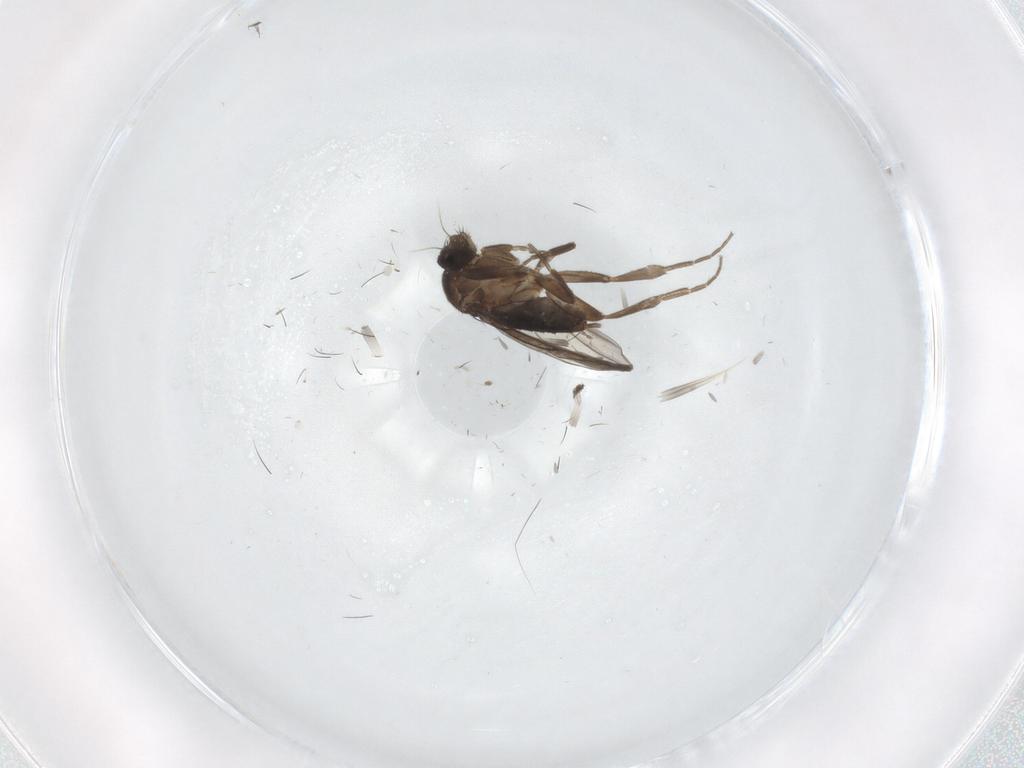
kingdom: Animalia
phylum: Arthropoda
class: Insecta
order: Diptera
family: Phoridae
